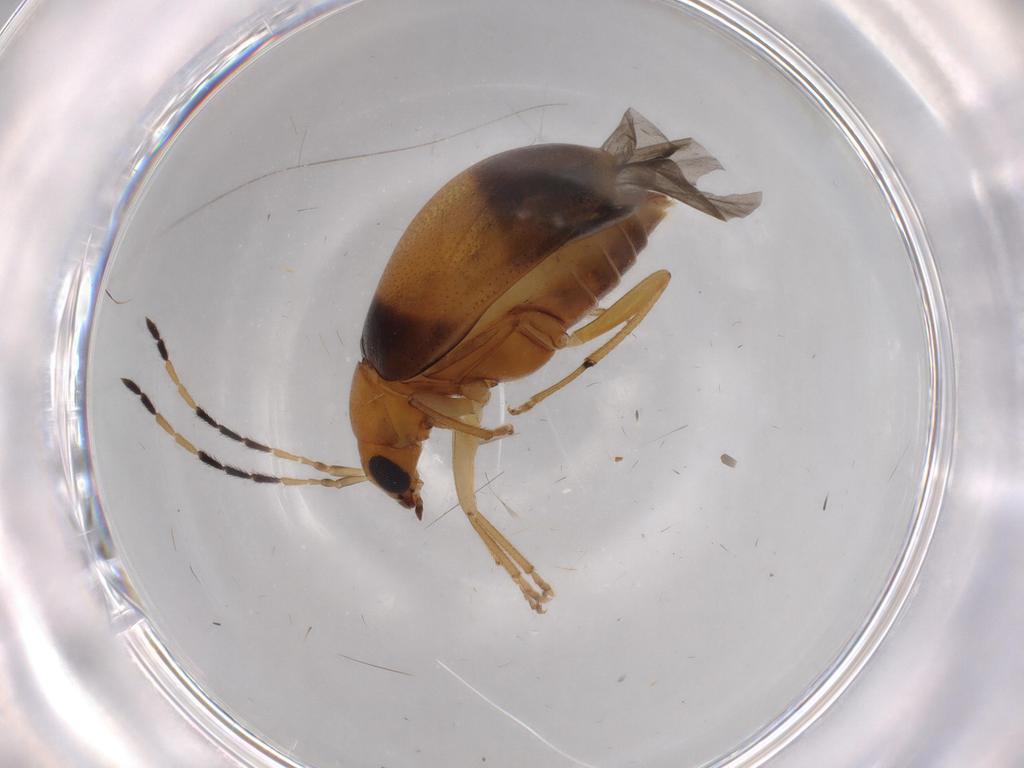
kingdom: Animalia
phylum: Arthropoda
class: Insecta
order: Coleoptera
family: Chrysomelidae
